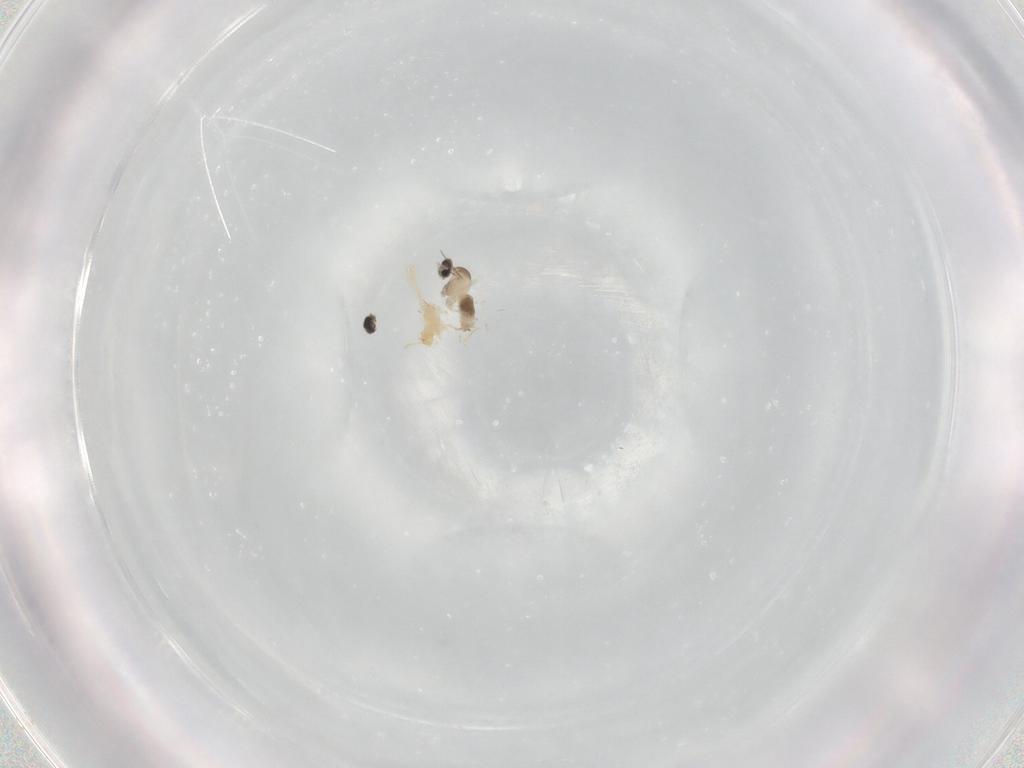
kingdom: Animalia
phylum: Arthropoda
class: Insecta
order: Diptera
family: Cecidomyiidae
